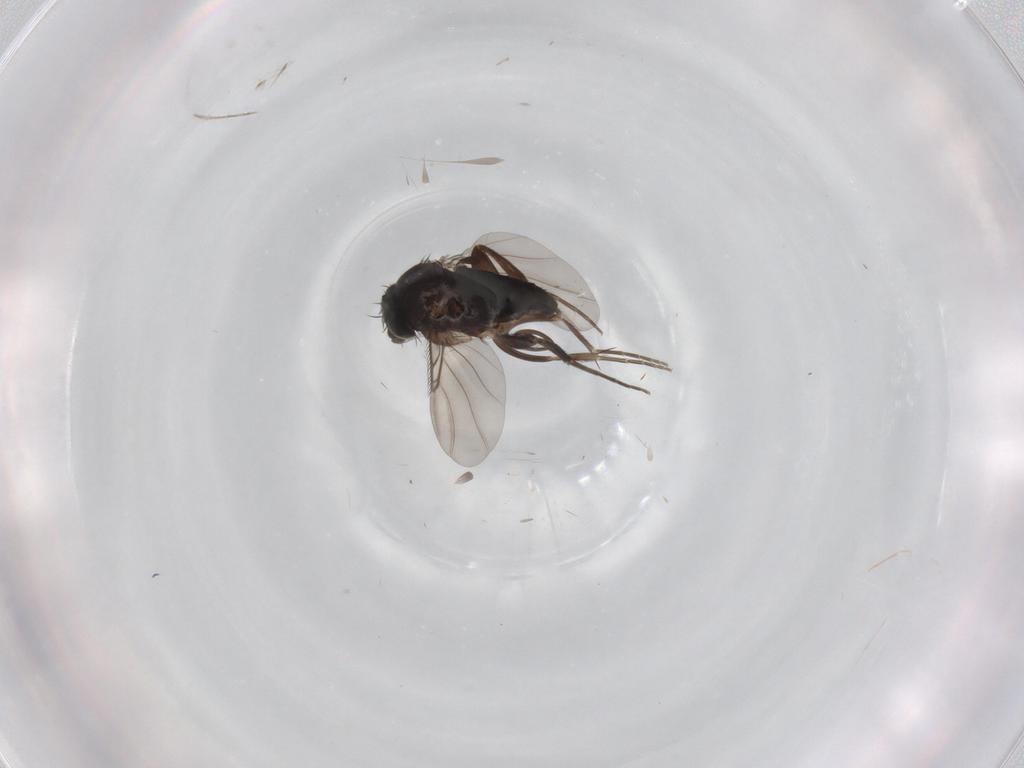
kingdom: Animalia
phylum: Arthropoda
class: Insecta
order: Diptera
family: Phoridae
